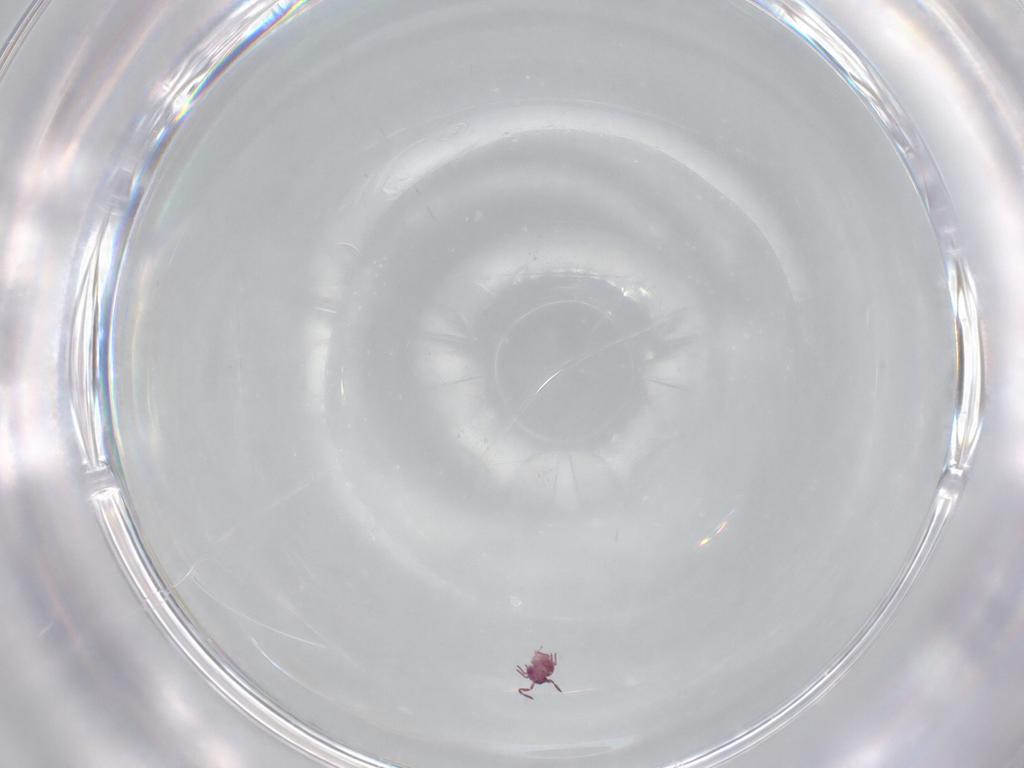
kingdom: Animalia
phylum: Arthropoda
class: Collembola
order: Symphypleona
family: Sminthurididae
